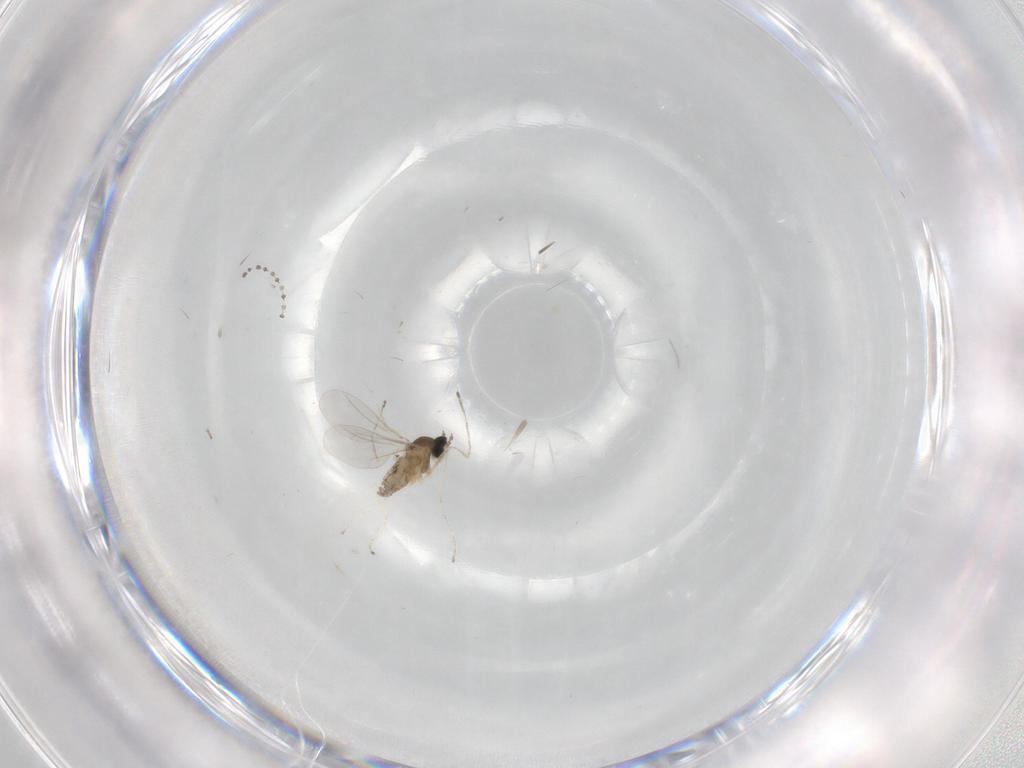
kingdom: Animalia
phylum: Arthropoda
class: Insecta
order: Diptera
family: Cecidomyiidae
